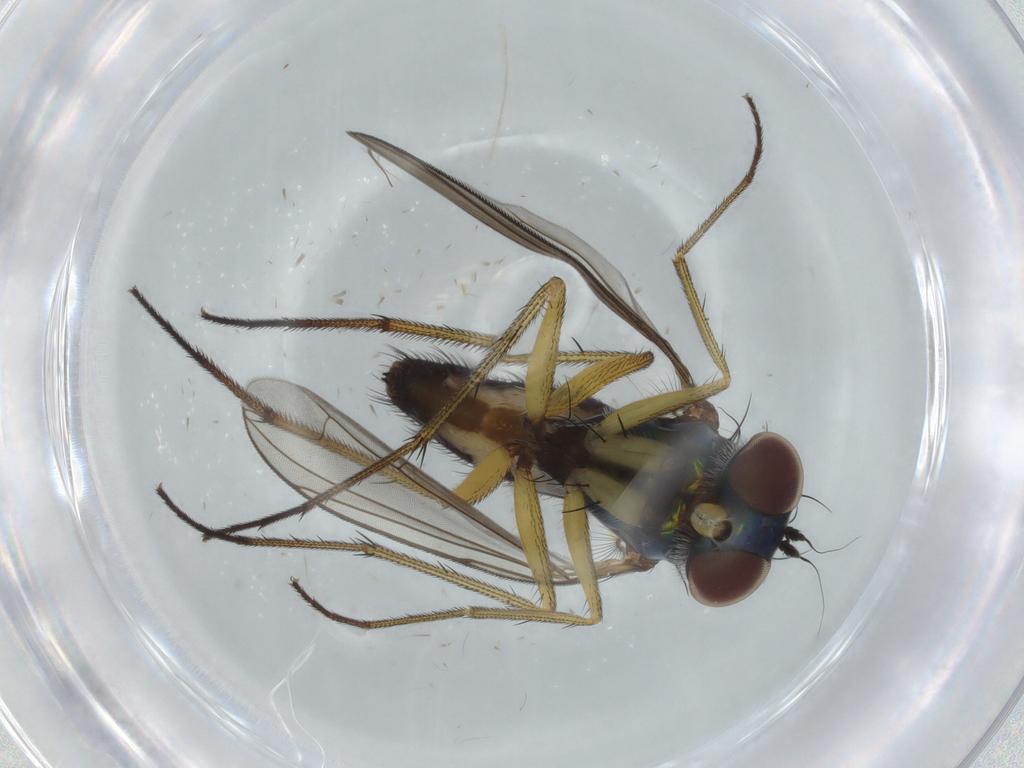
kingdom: Animalia
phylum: Arthropoda
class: Insecta
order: Diptera
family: Dolichopodidae
